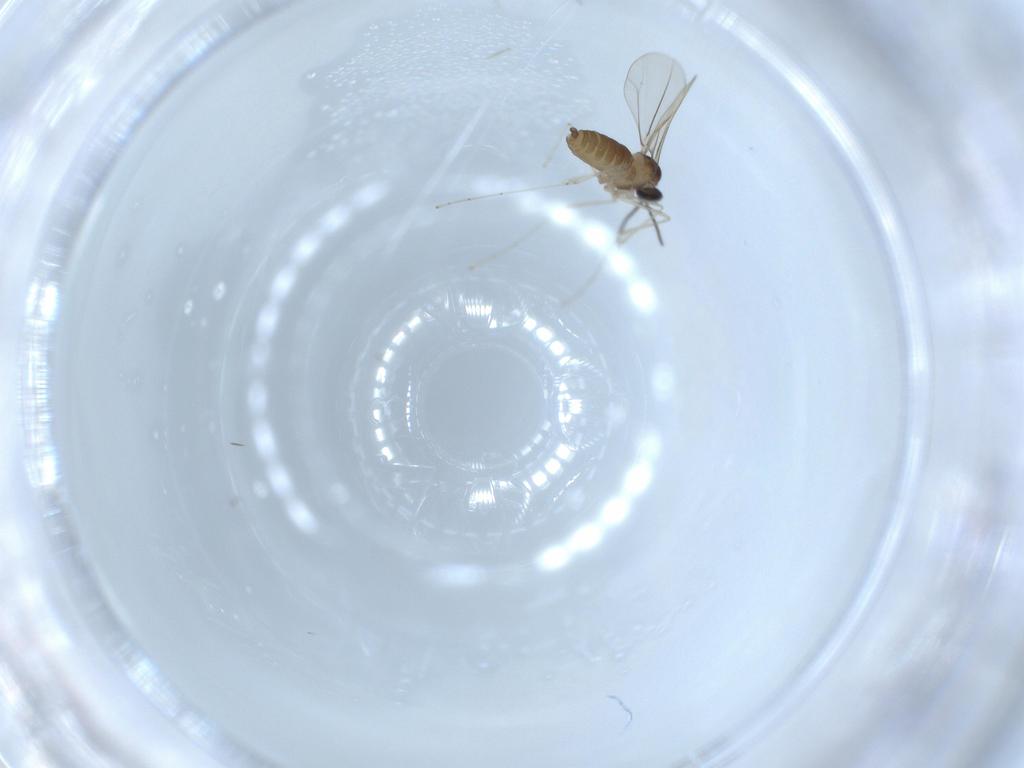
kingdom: Animalia
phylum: Arthropoda
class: Insecta
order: Diptera
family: Cecidomyiidae
